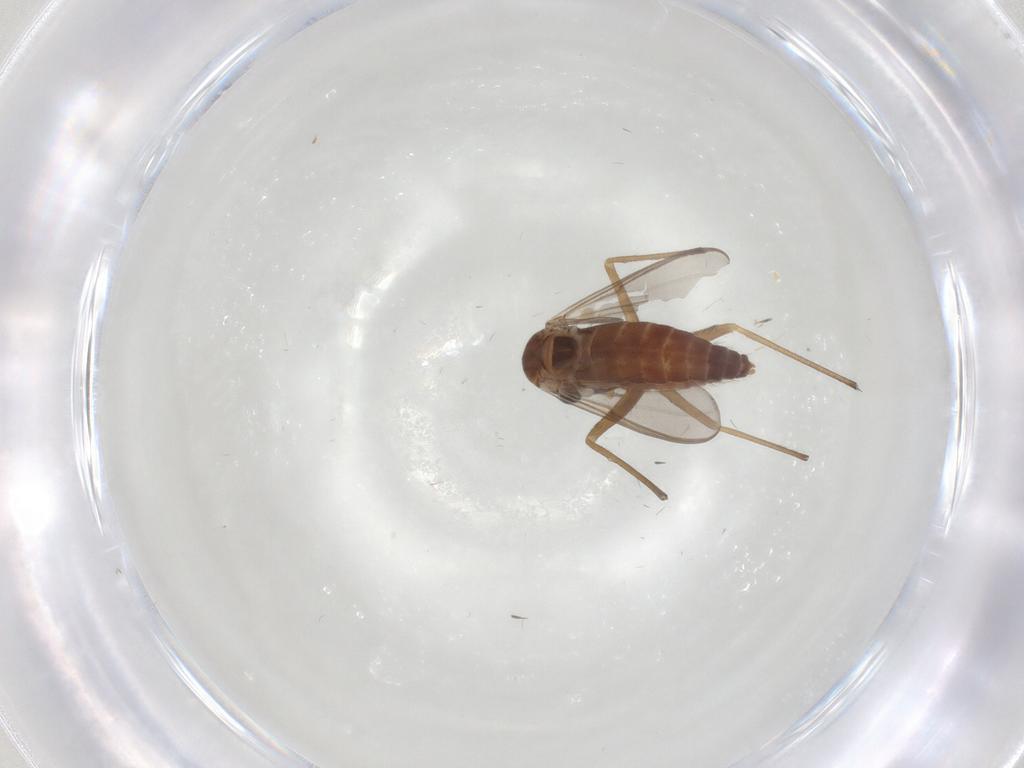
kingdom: Animalia
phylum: Arthropoda
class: Insecta
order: Diptera
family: Chironomidae
